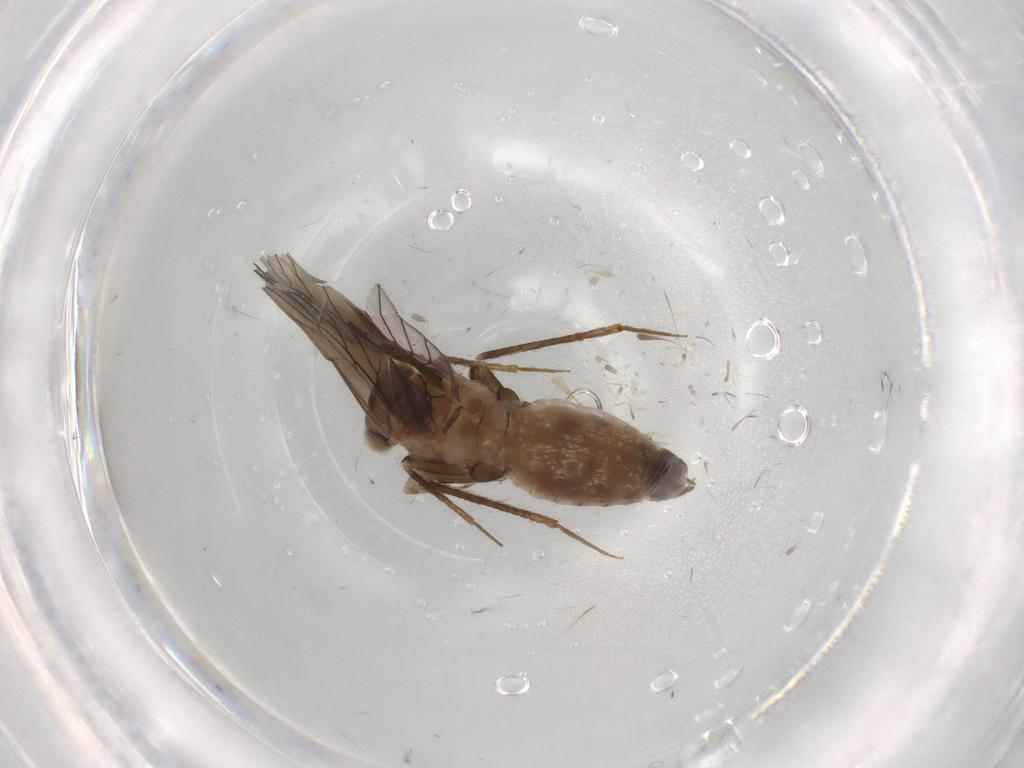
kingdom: Animalia
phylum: Arthropoda
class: Insecta
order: Psocodea
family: Lepidopsocidae
